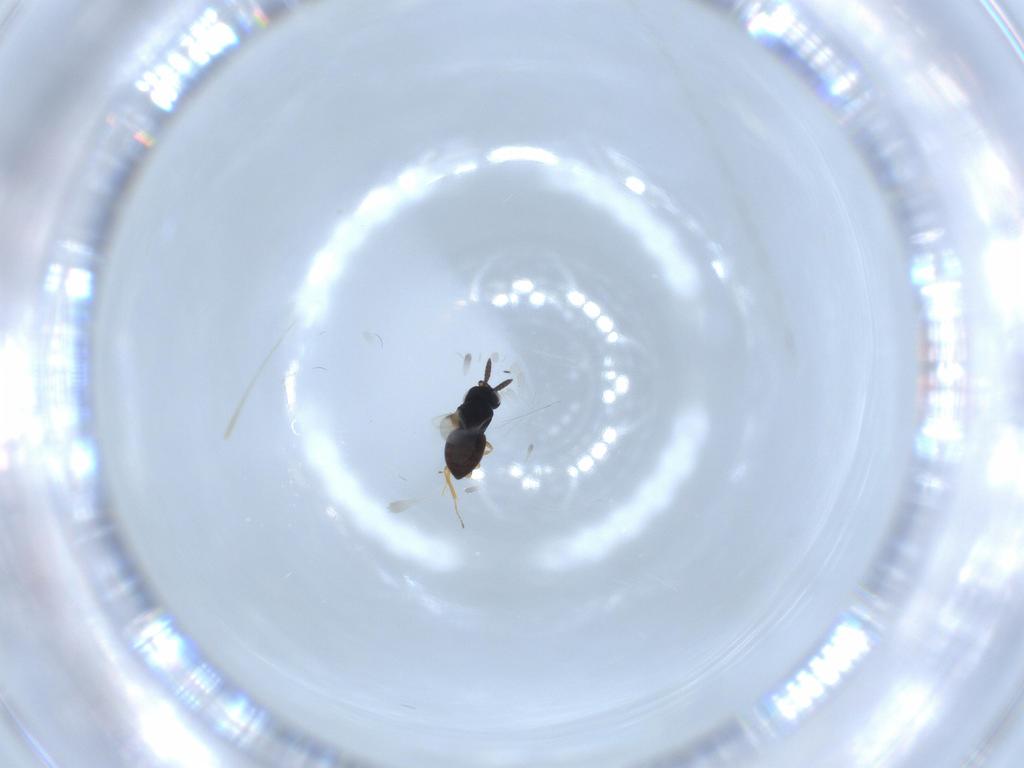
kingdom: Animalia
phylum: Arthropoda
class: Insecta
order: Hymenoptera
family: Scelionidae
